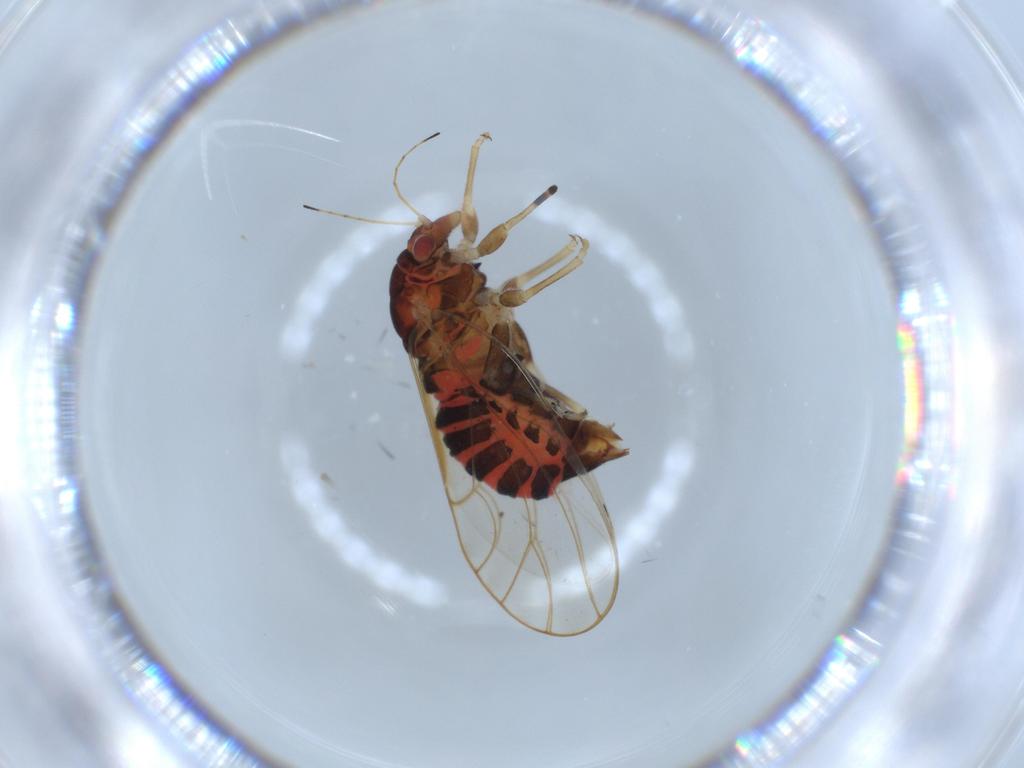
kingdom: Animalia
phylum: Arthropoda
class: Insecta
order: Hemiptera
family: Aleyrodidae
